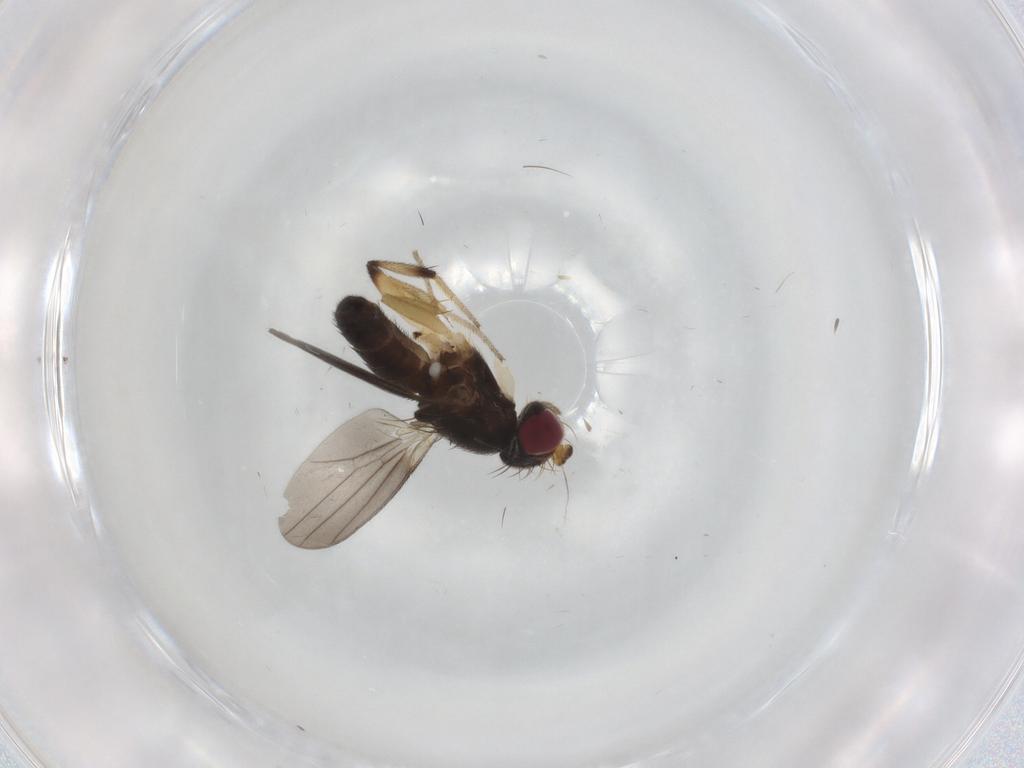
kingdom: Animalia
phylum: Arthropoda
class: Insecta
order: Diptera
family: Clusiidae
